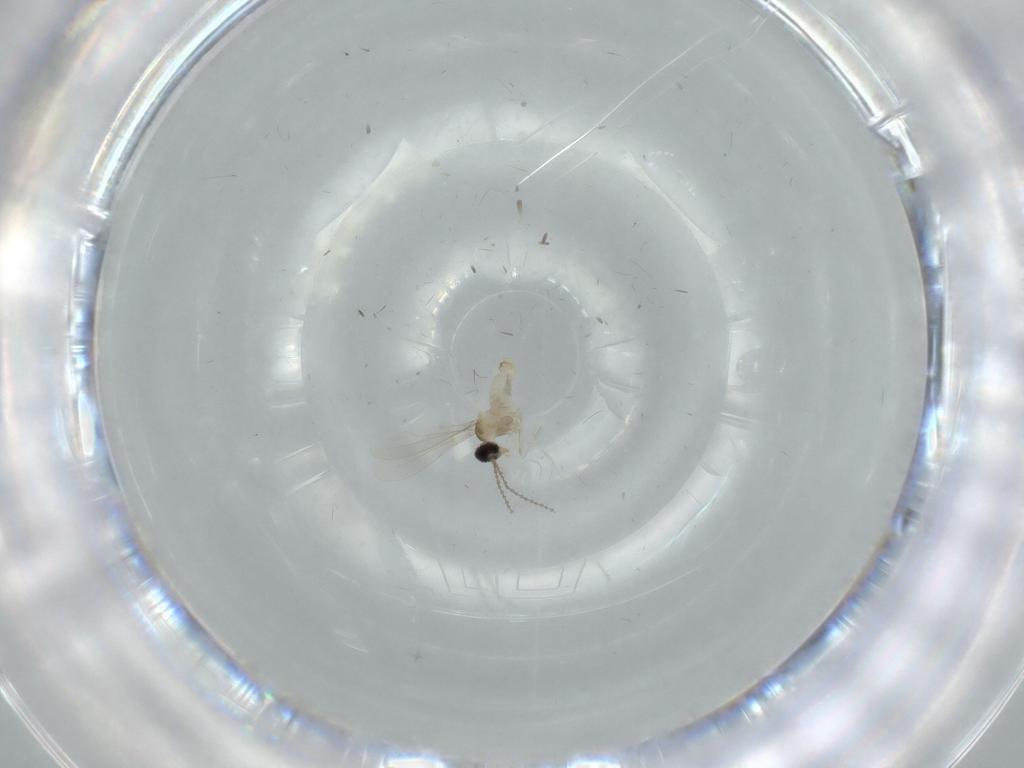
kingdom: Animalia
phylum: Arthropoda
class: Insecta
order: Diptera
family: Cecidomyiidae
